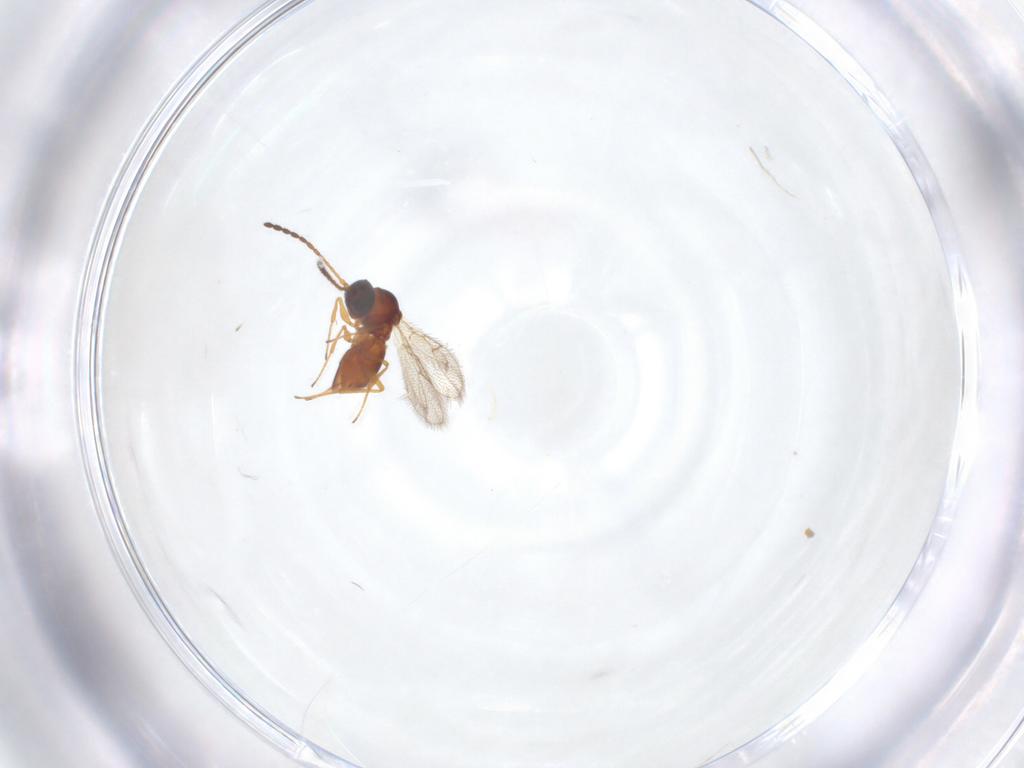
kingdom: Animalia
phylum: Arthropoda
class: Insecta
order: Hymenoptera
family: Figitidae
